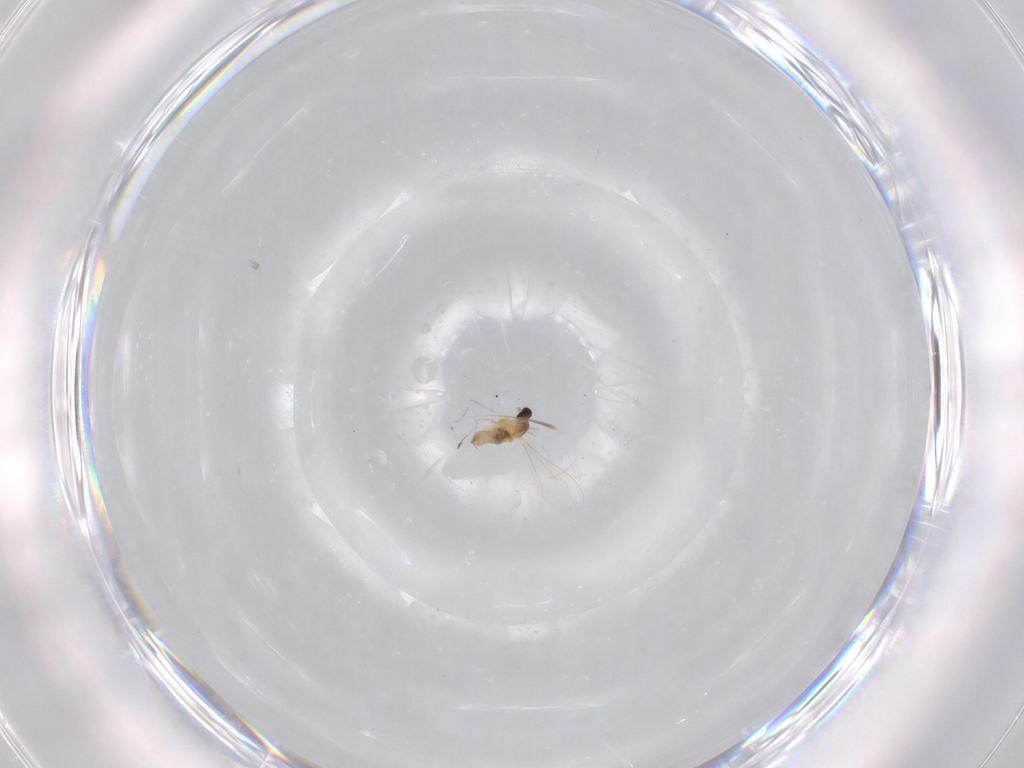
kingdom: Animalia
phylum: Arthropoda
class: Insecta
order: Diptera
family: Cecidomyiidae
